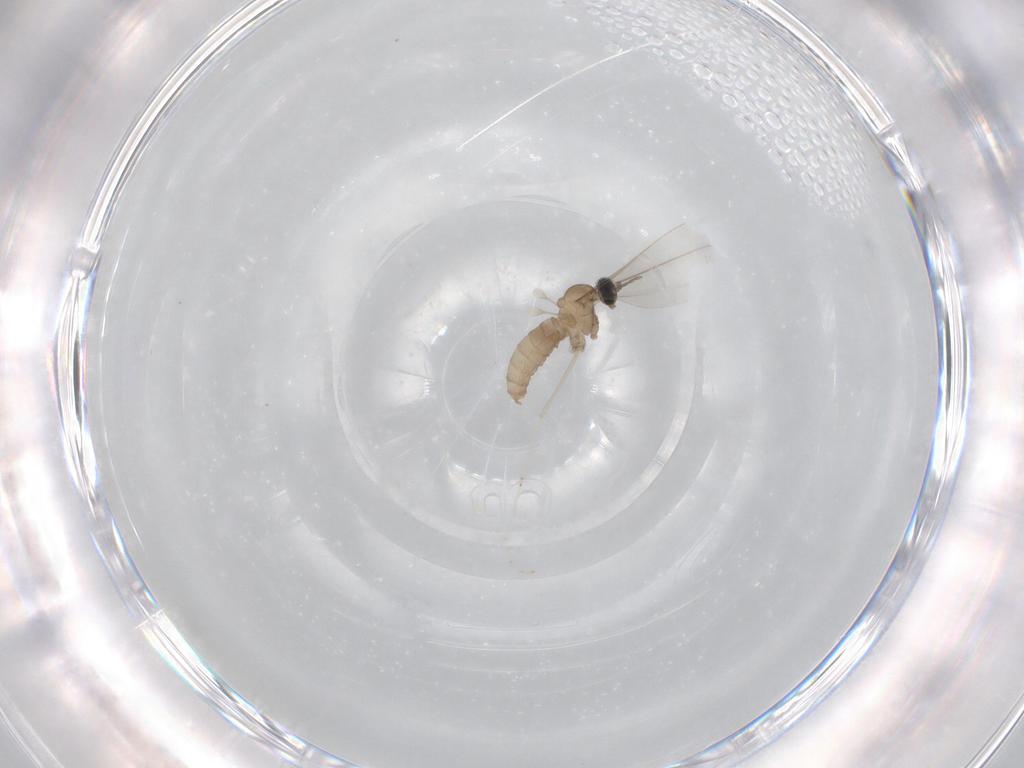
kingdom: Animalia
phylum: Arthropoda
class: Insecta
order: Diptera
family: Cecidomyiidae
